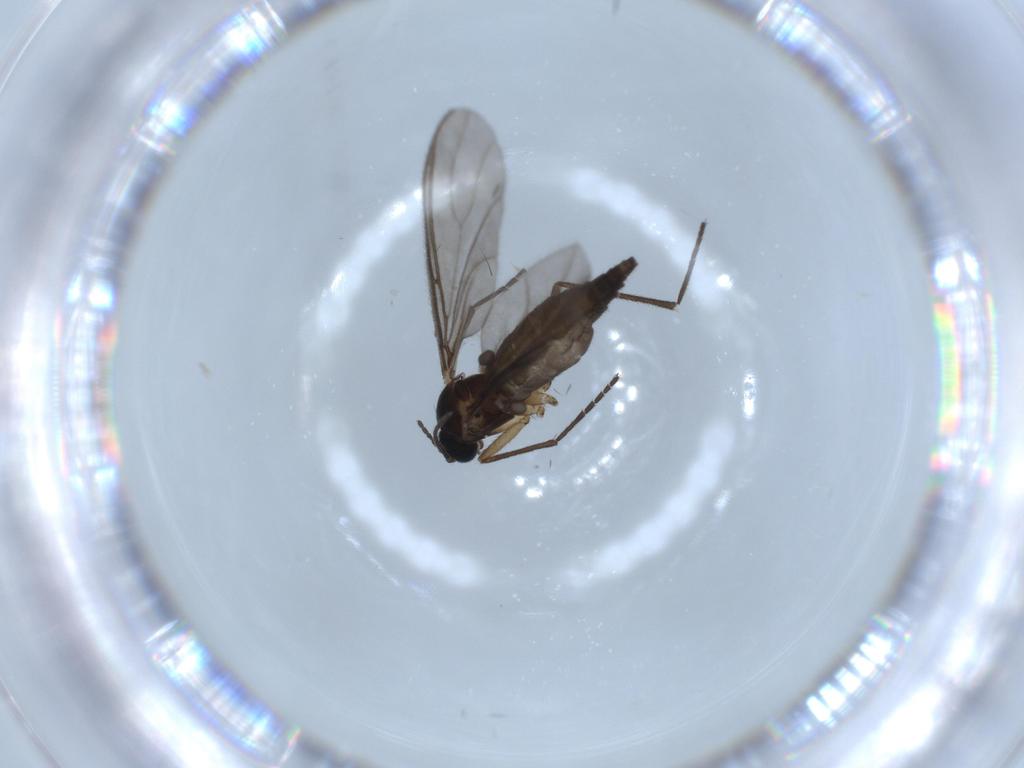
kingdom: Animalia
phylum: Arthropoda
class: Insecta
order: Diptera
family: Sciaridae
